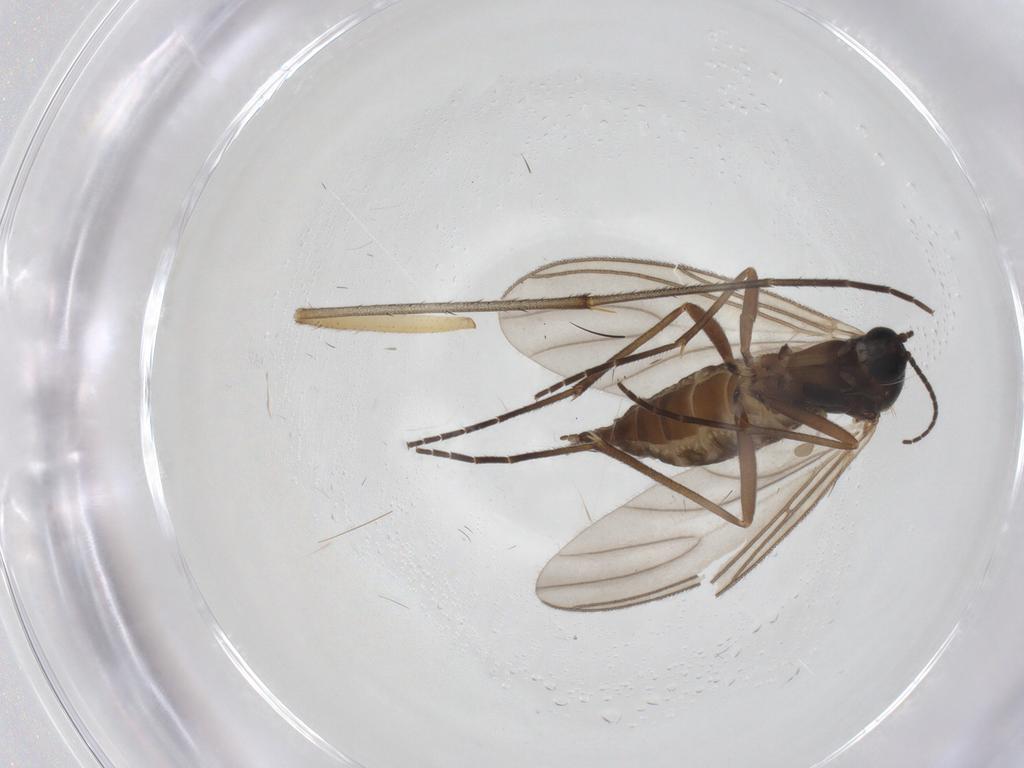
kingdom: Animalia
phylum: Arthropoda
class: Insecta
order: Diptera
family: Sciaridae
